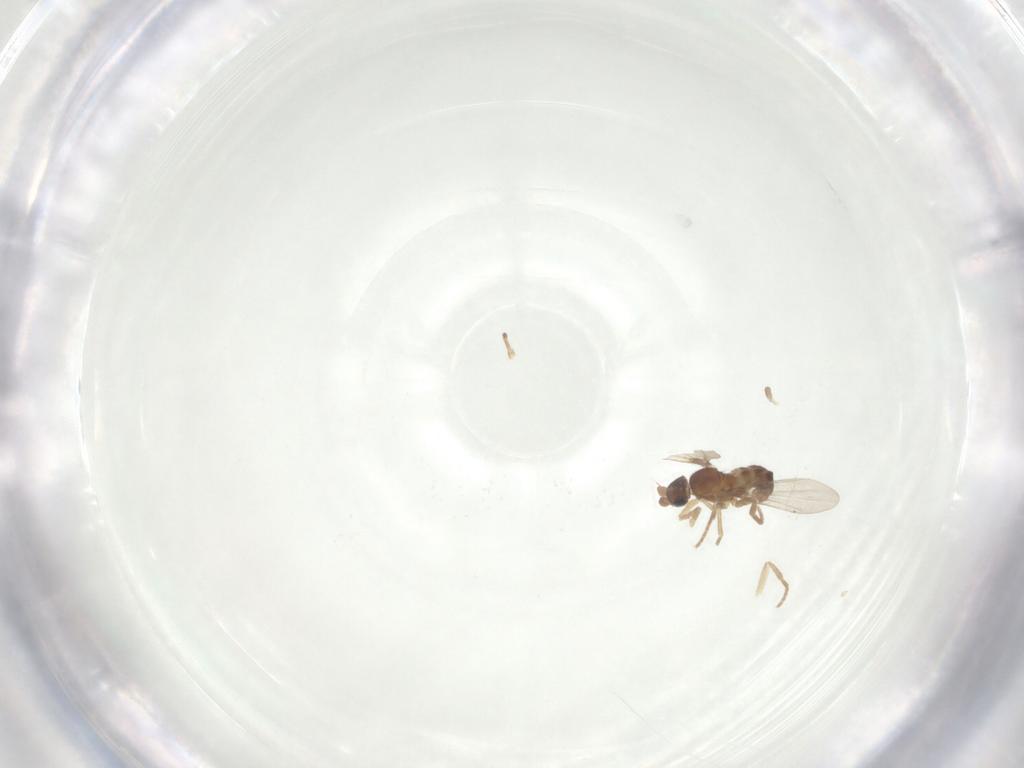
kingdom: Animalia
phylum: Arthropoda
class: Insecta
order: Diptera
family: Phoridae
